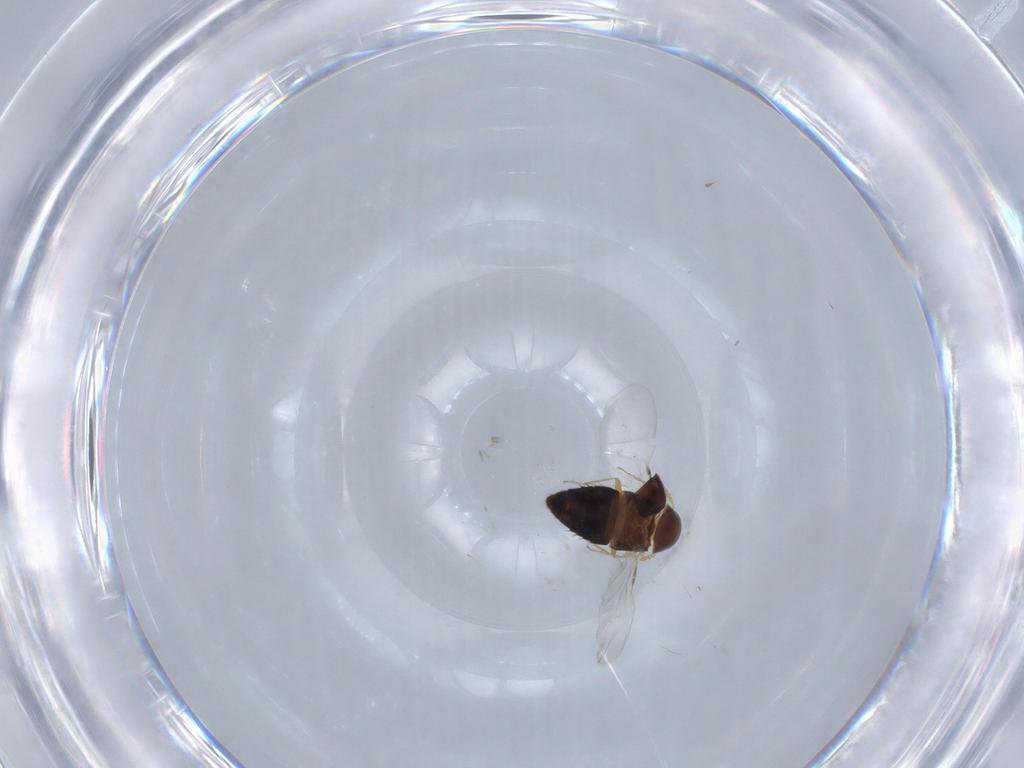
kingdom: Animalia
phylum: Arthropoda
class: Insecta
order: Coleoptera
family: Staphylinidae
